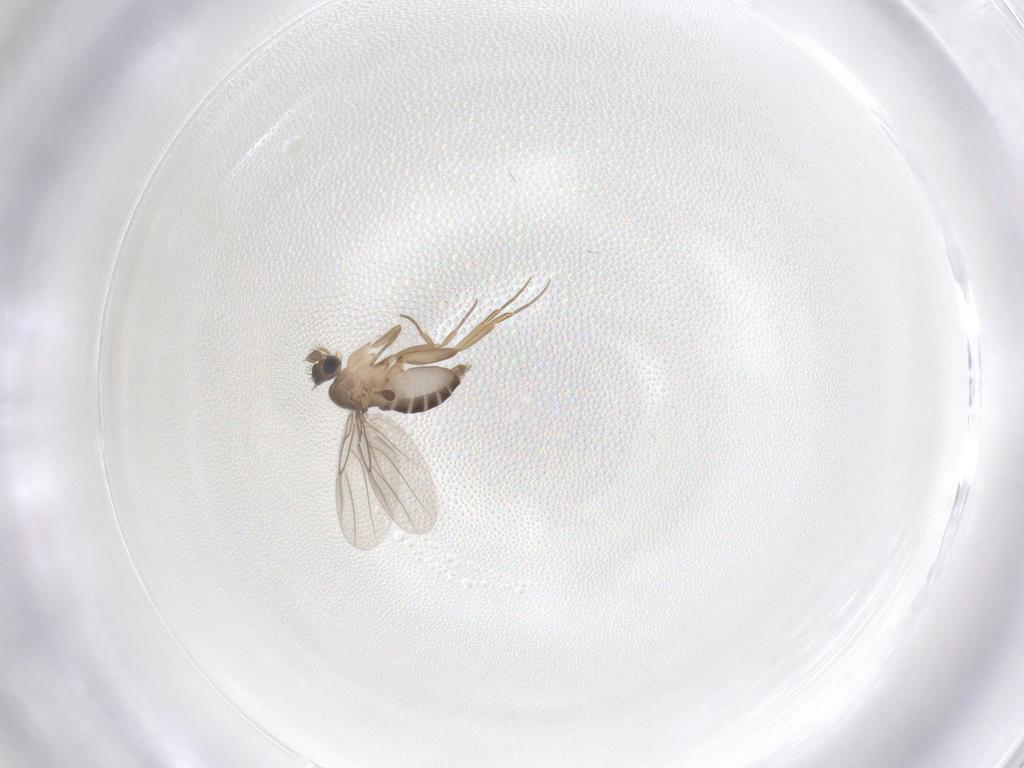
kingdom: Animalia
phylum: Arthropoda
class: Insecta
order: Diptera
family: Phoridae
